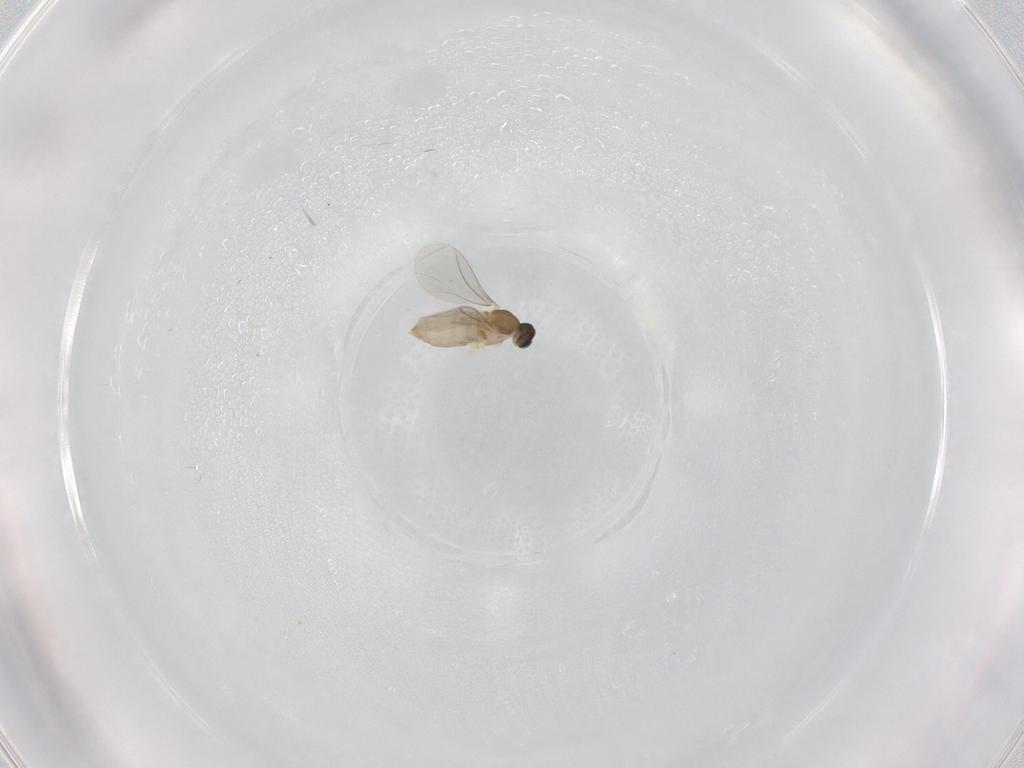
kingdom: Animalia
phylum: Arthropoda
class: Insecta
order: Diptera
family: Cecidomyiidae
